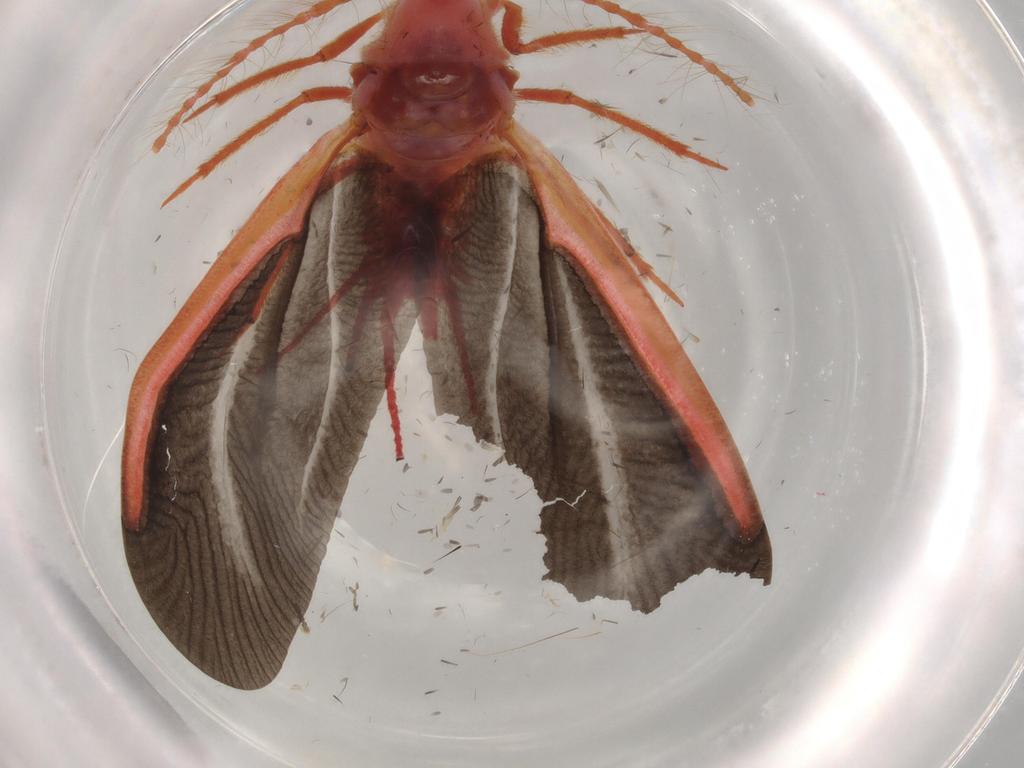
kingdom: Animalia
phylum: Arthropoda
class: Insecta
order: Hemiptera
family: Coccoidea_incertae_sedis
